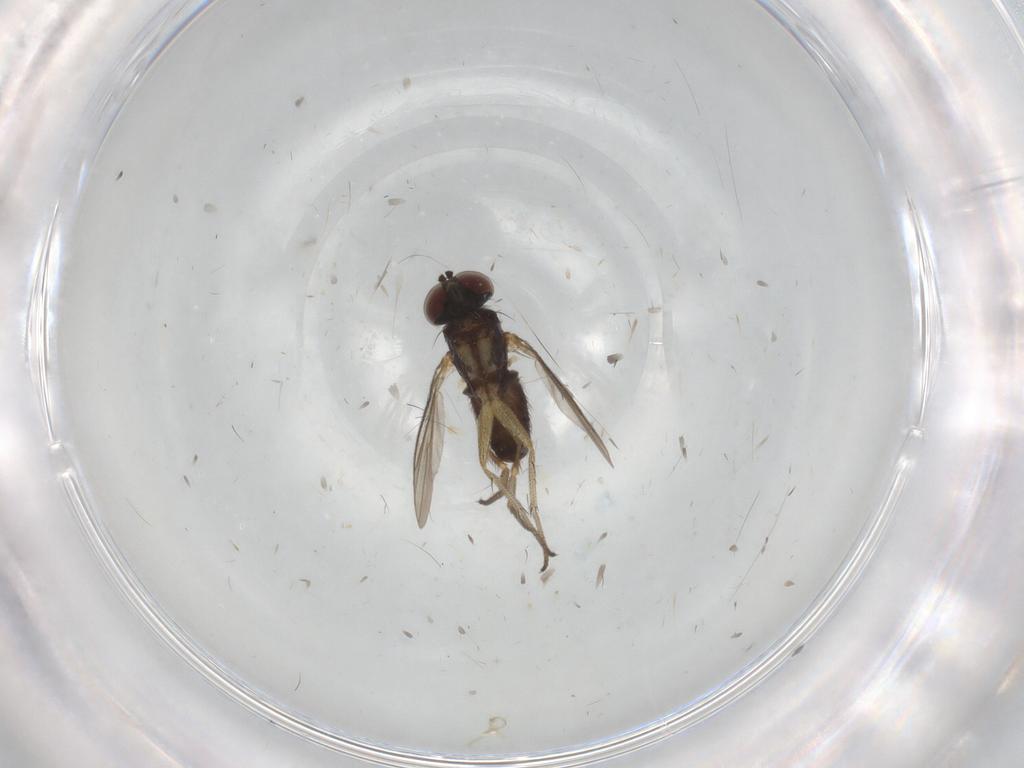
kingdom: Animalia
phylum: Arthropoda
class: Insecta
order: Diptera
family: Dolichopodidae
